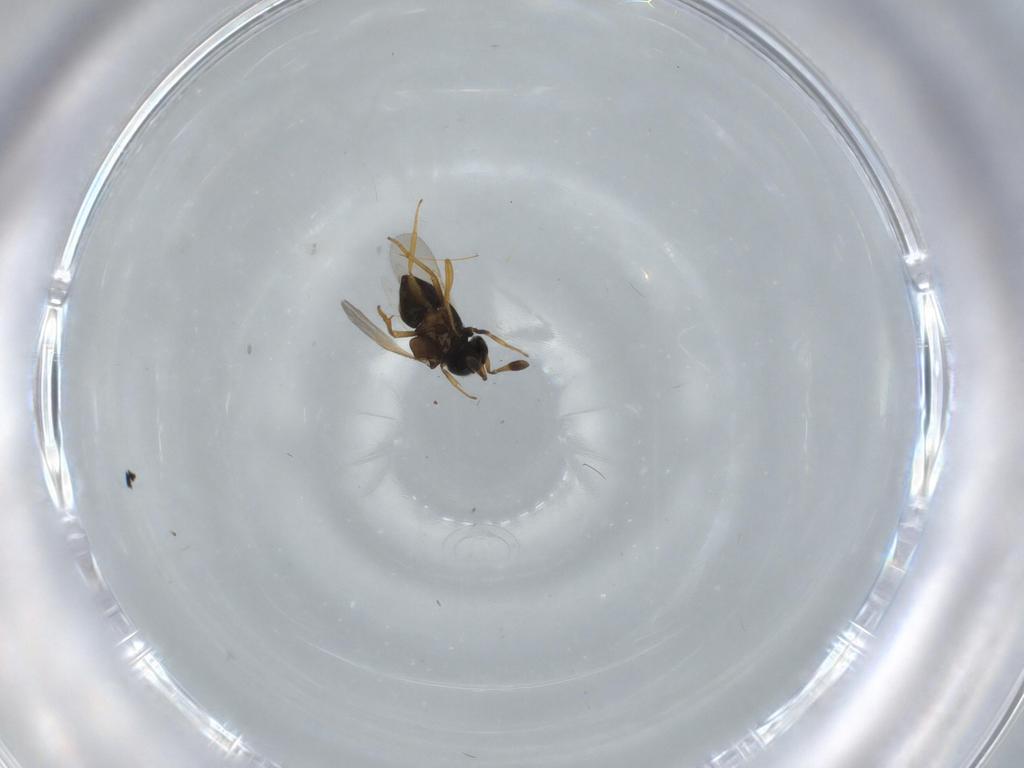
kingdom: Animalia
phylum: Arthropoda
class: Insecta
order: Hymenoptera
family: Encyrtidae
